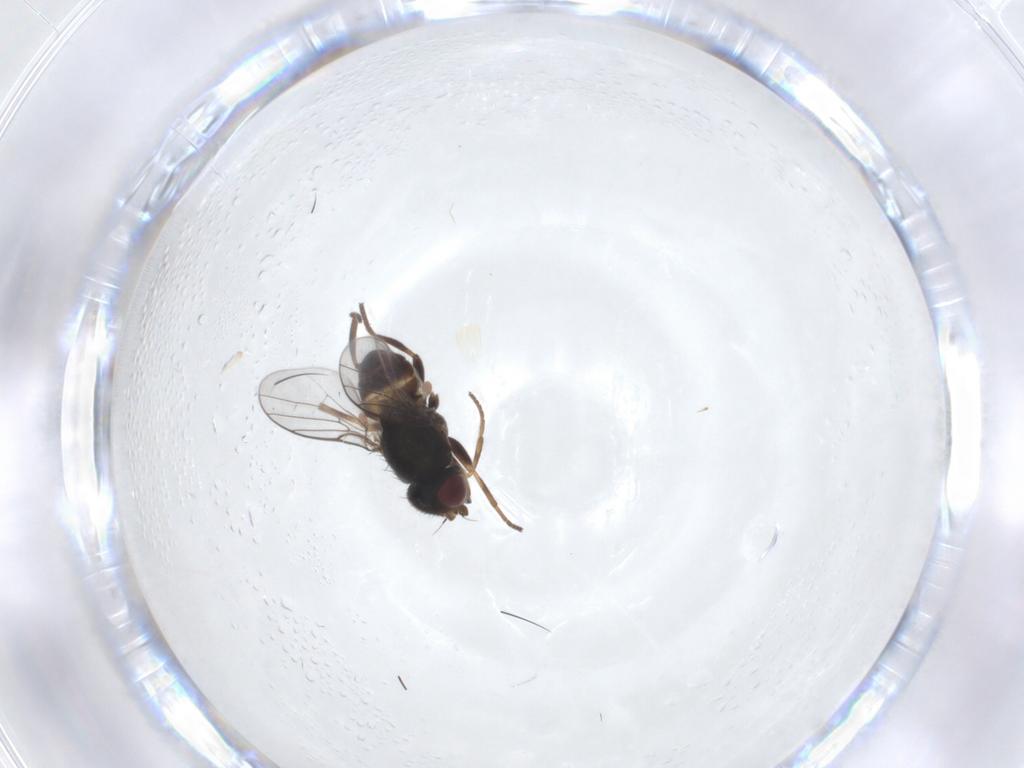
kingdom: Animalia
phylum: Arthropoda
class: Insecta
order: Diptera
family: Chloropidae
